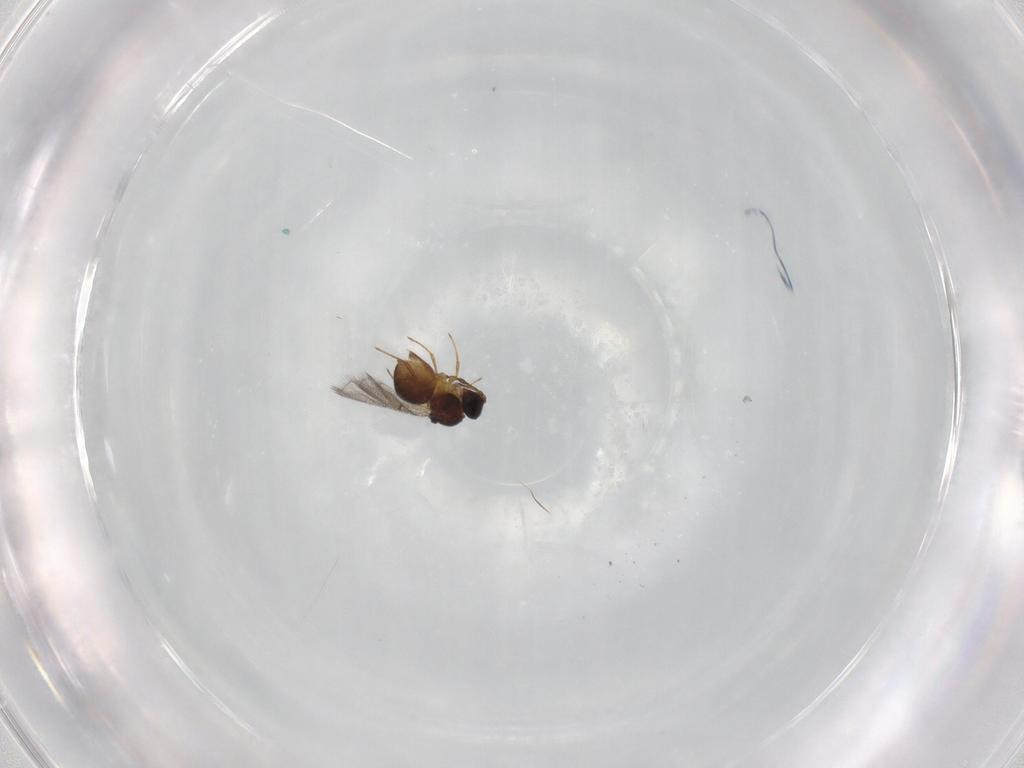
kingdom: Animalia
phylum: Arthropoda
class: Insecta
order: Hymenoptera
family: Figitidae
